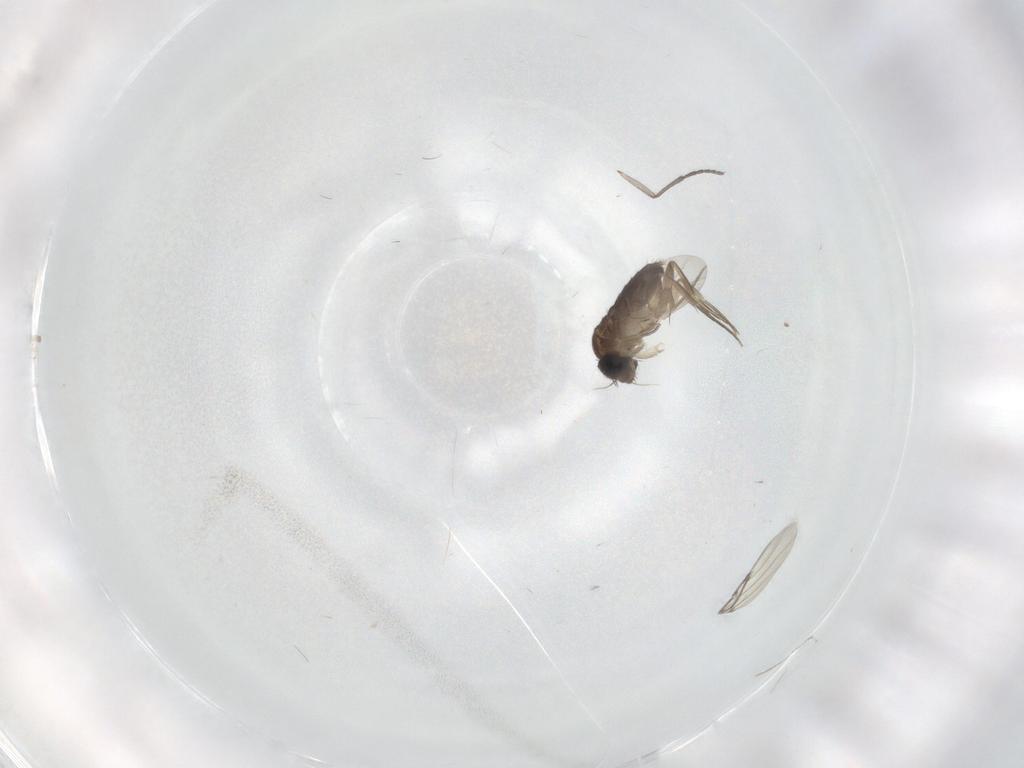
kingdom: Animalia
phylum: Arthropoda
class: Insecta
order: Diptera
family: Phoridae
